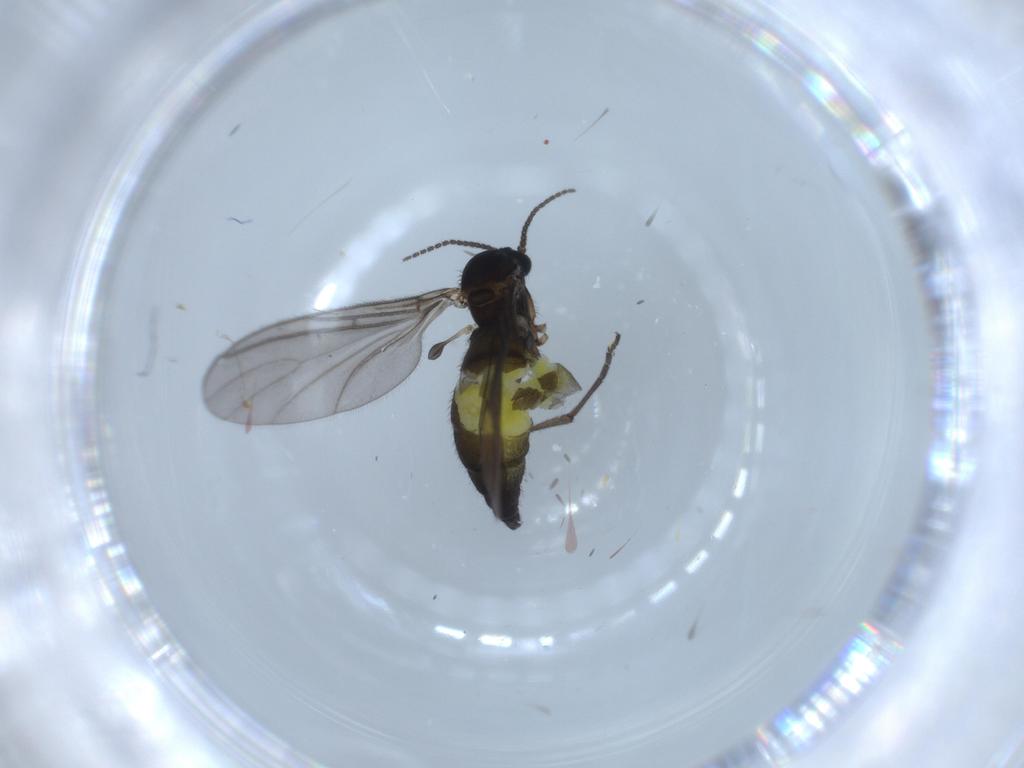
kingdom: Animalia
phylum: Arthropoda
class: Insecta
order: Diptera
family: Sciaridae
